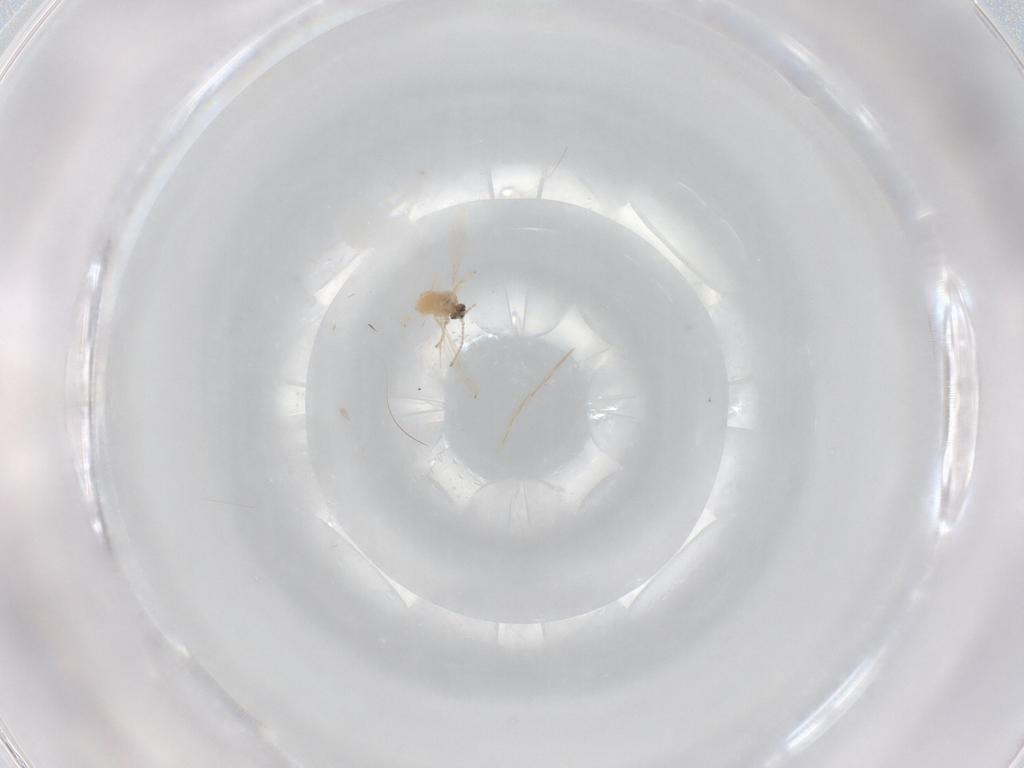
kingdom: Animalia
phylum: Arthropoda
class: Insecta
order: Diptera
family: Cecidomyiidae
